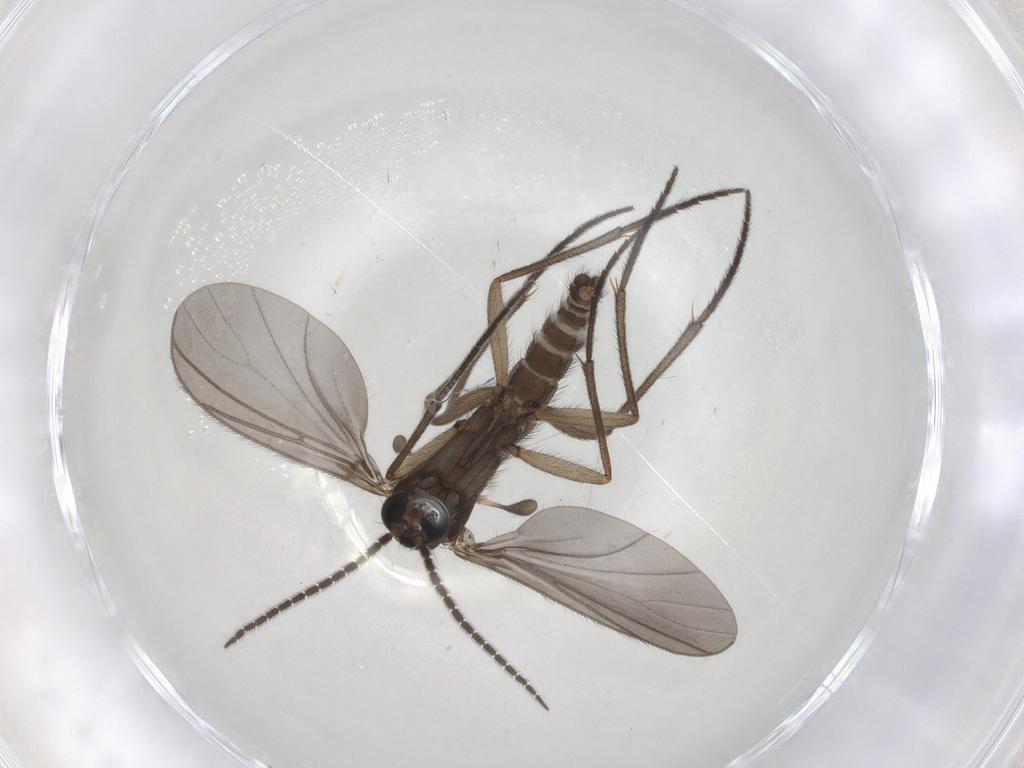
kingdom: Animalia
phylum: Arthropoda
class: Insecta
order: Diptera
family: Sciaridae
